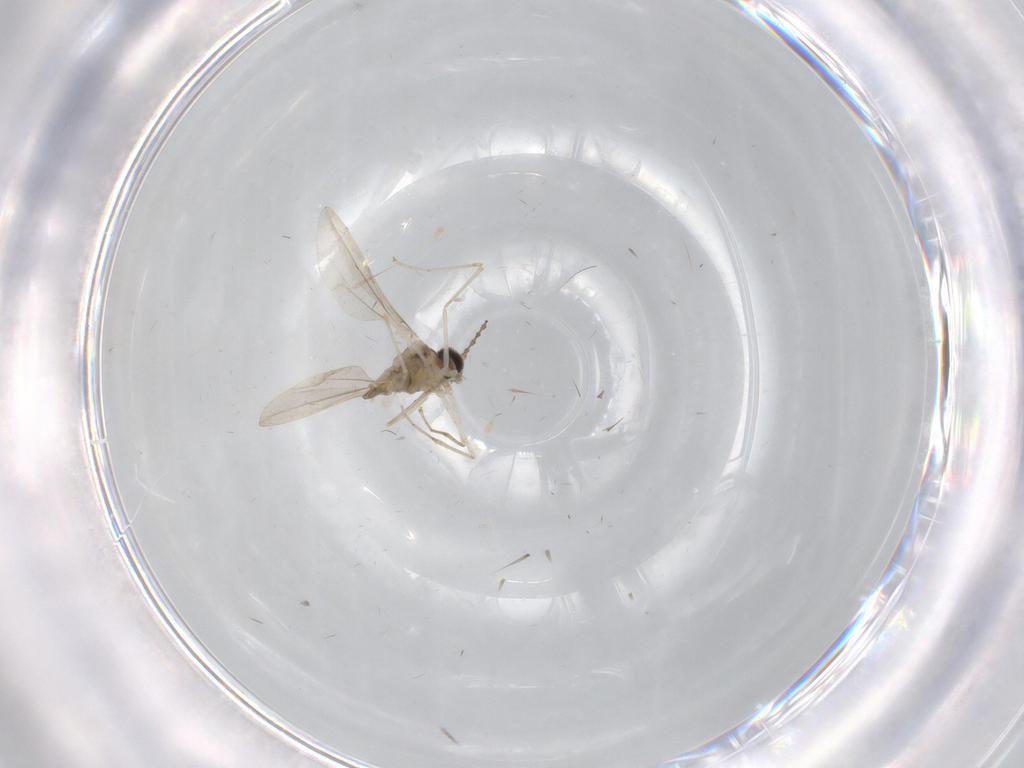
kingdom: Animalia
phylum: Arthropoda
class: Insecta
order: Diptera
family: Cecidomyiidae
